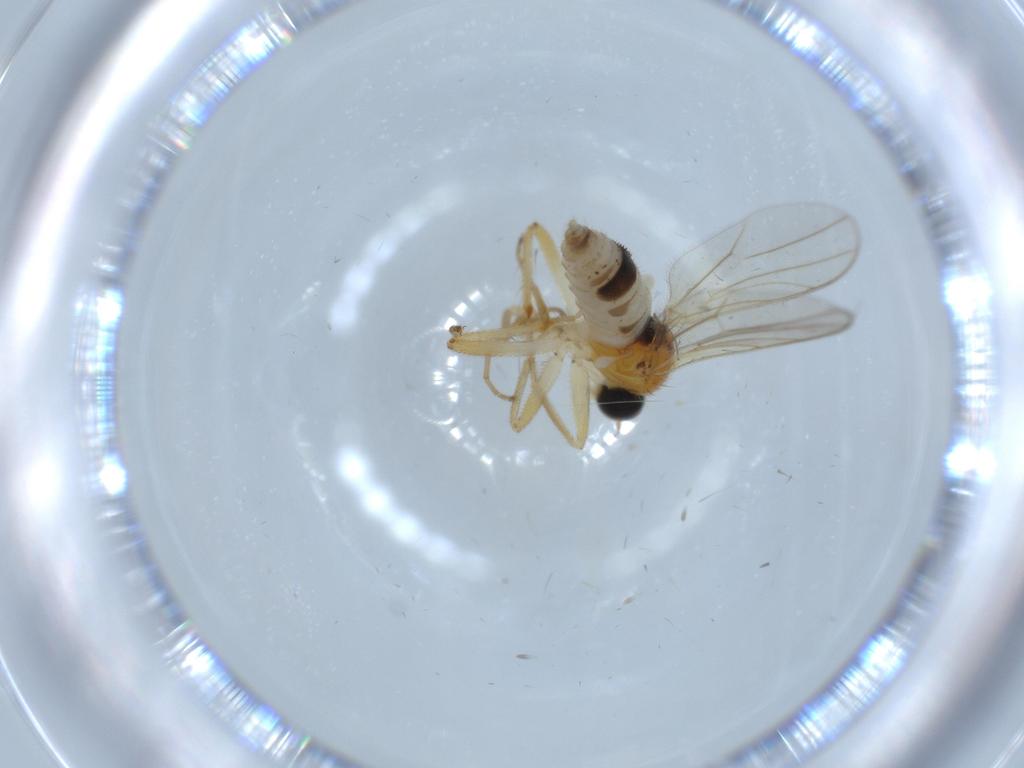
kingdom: Animalia
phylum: Arthropoda
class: Insecta
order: Diptera
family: Hybotidae
